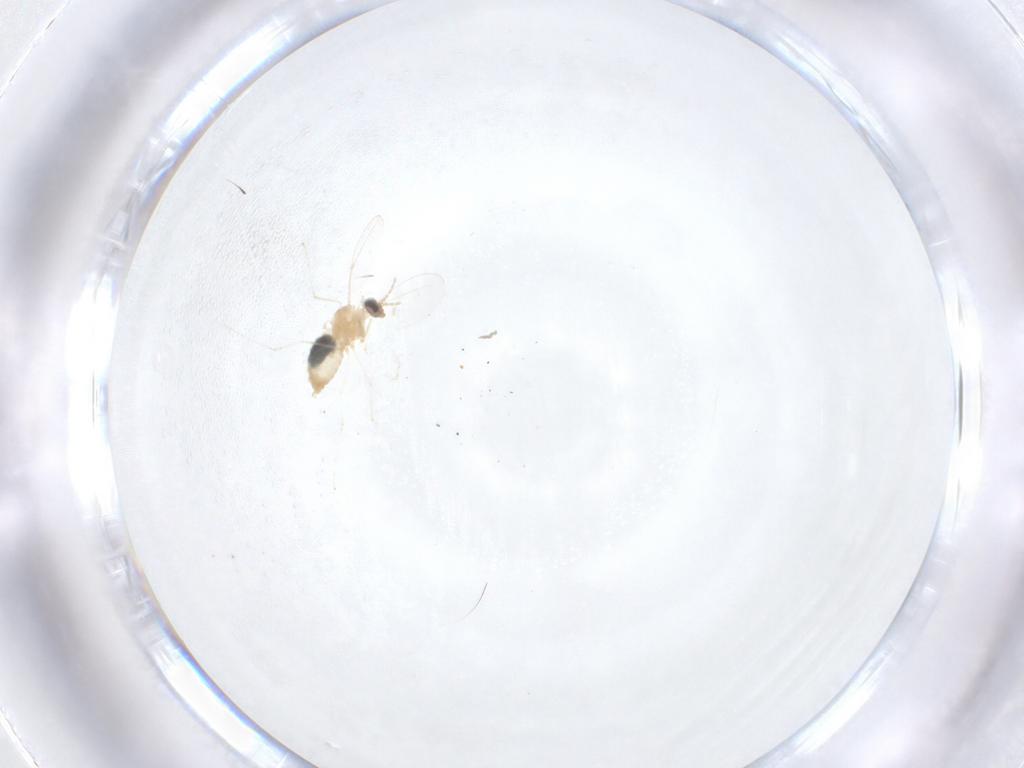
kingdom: Animalia
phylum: Arthropoda
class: Insecta
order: Diptera
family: Cecidomyiidae
